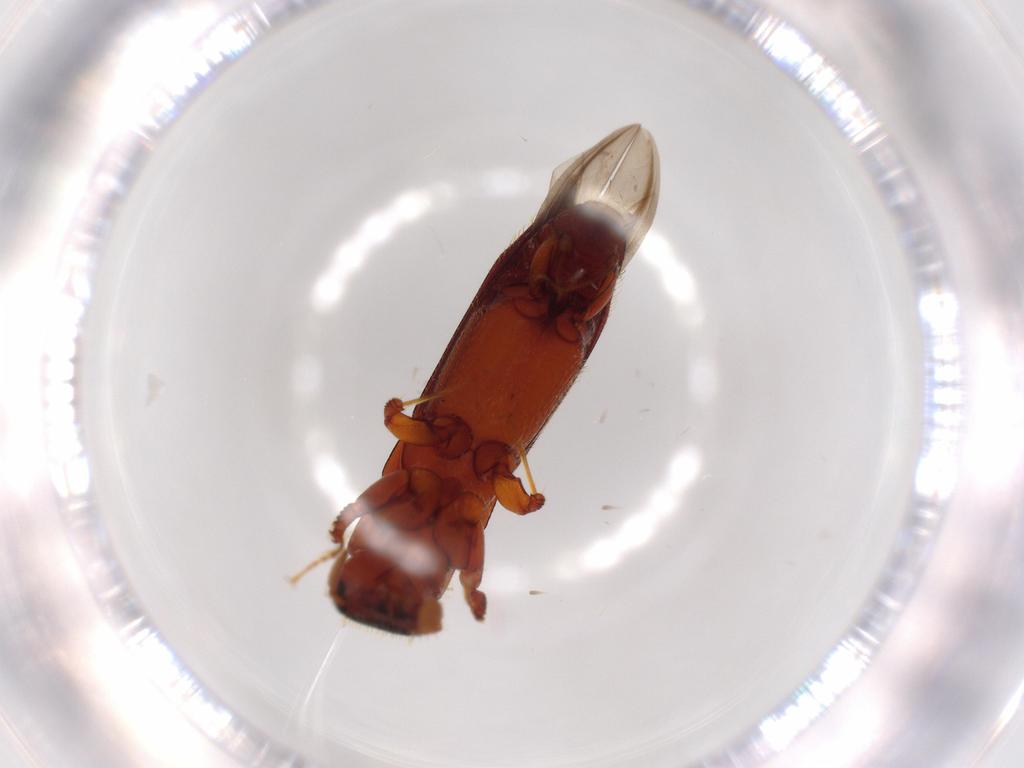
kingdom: Animalia
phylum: Arthropoda
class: Insecta
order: Coleoptera
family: Curculionidae
